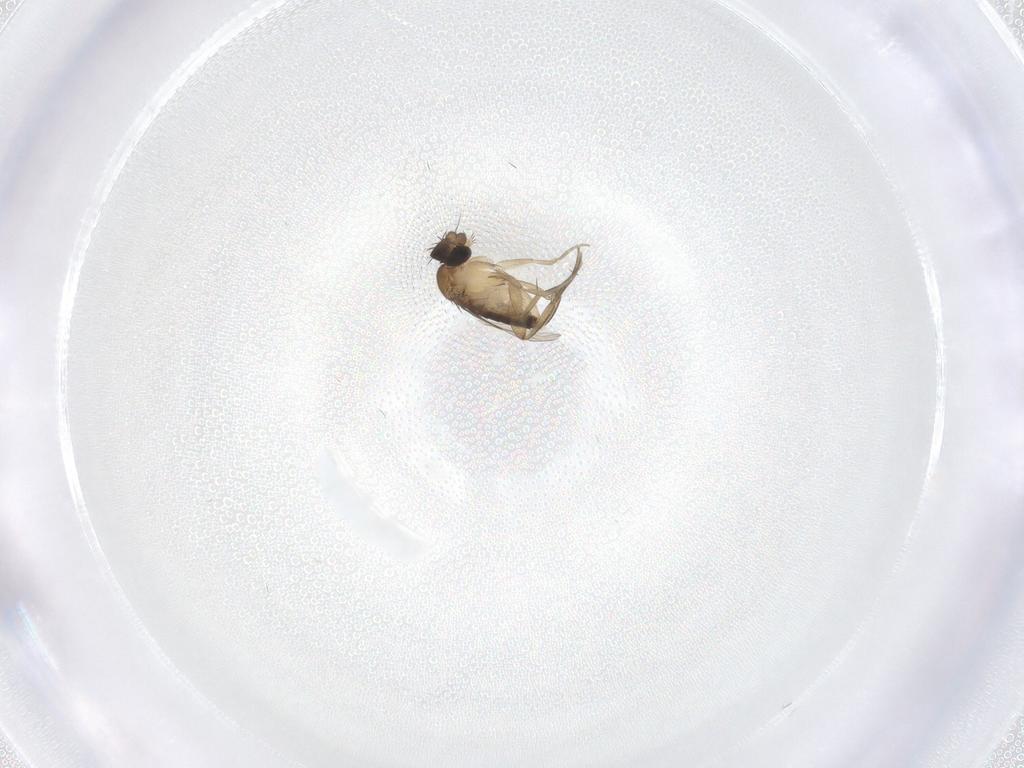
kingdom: Animalia
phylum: Arthropoda
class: Insecta
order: Diptera
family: Phoridae
